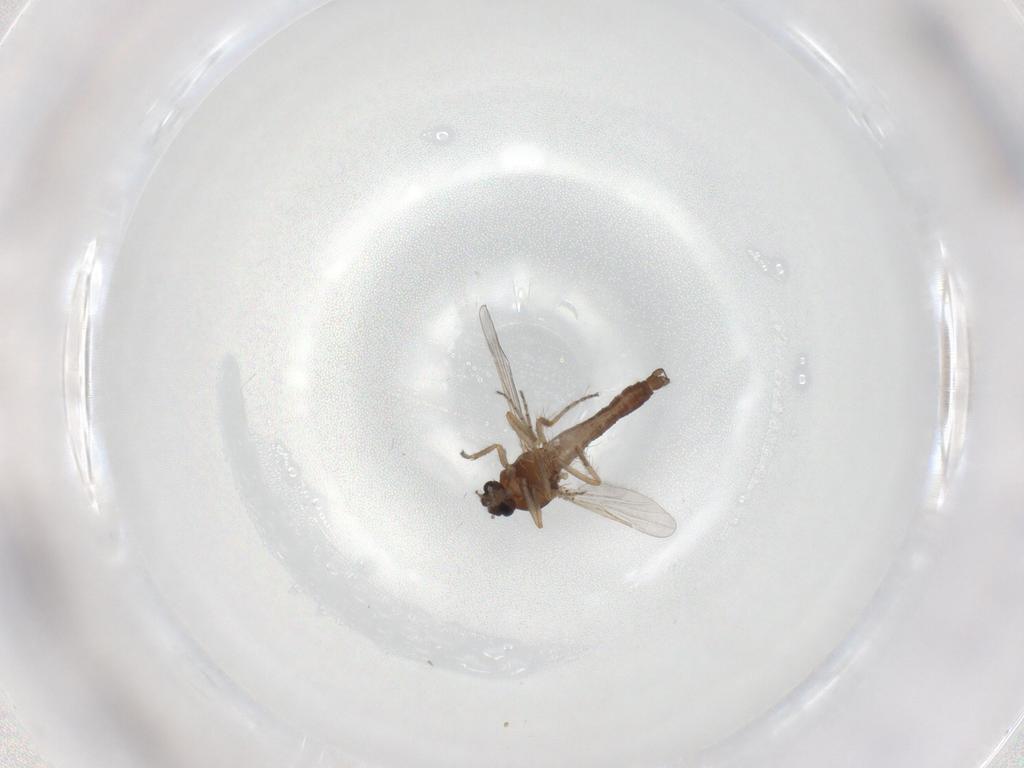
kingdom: Animalia
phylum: Arthropoda
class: Insecta
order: Diptera
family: Ceratopogonidae
